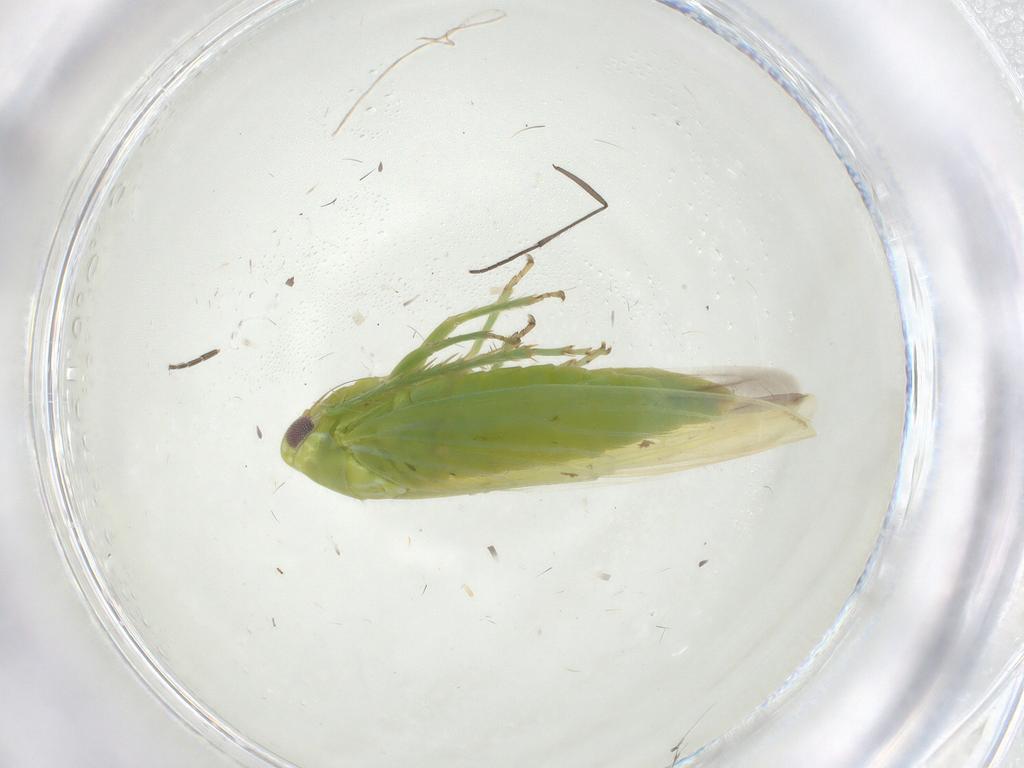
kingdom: Animalia
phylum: Arthropoda
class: Insecta
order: Hemiptera
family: Cicadellidae
